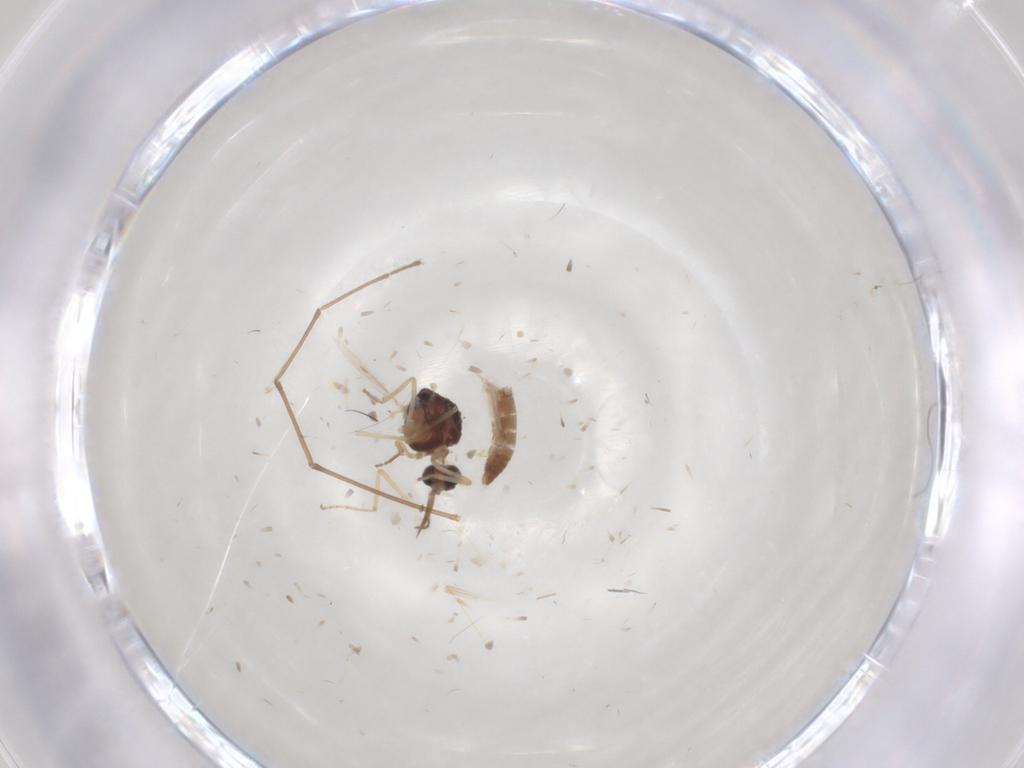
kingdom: Animalia
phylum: Arthropoda
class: Insecta
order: Diptera
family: Ceratopogonidae
